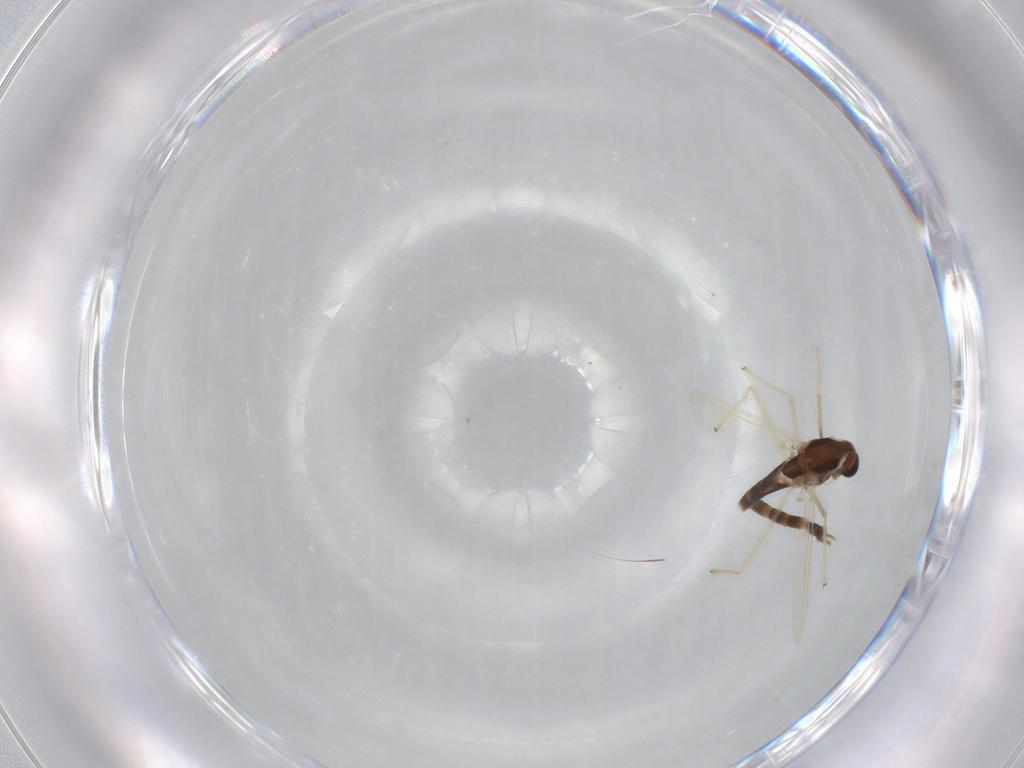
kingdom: Animalia
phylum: Arthropoda
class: Insecta
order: Diptera
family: Chironomidae
